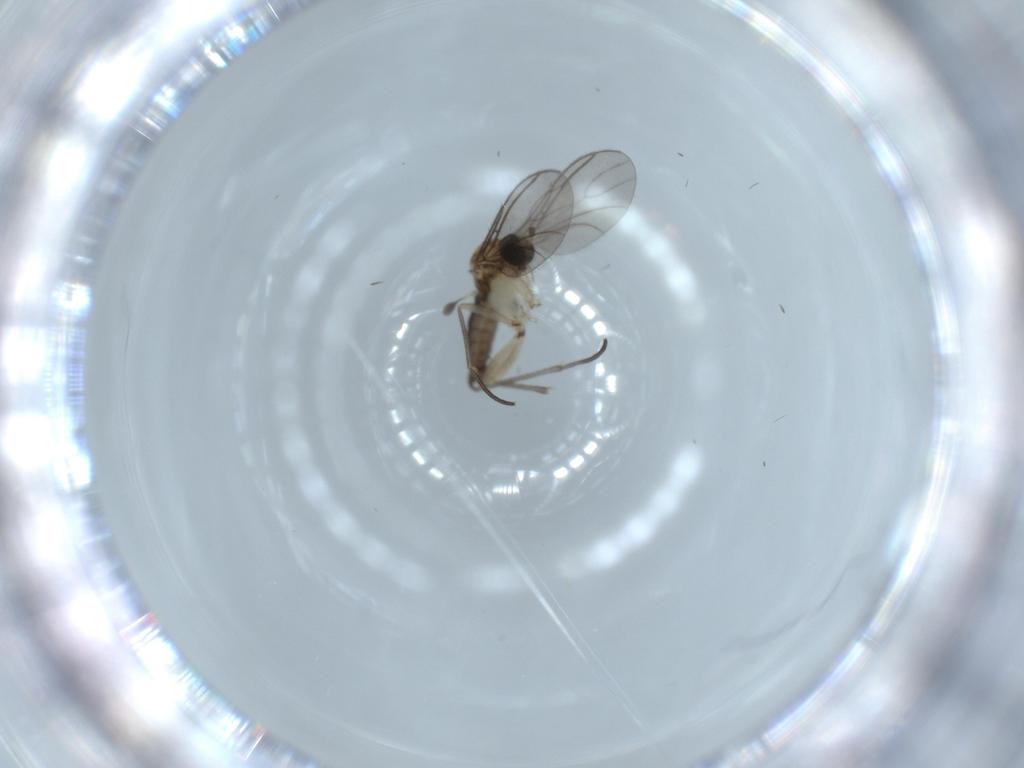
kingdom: Animalia
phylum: Arthropoda
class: Insecta
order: Diptera
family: Sciaridae
